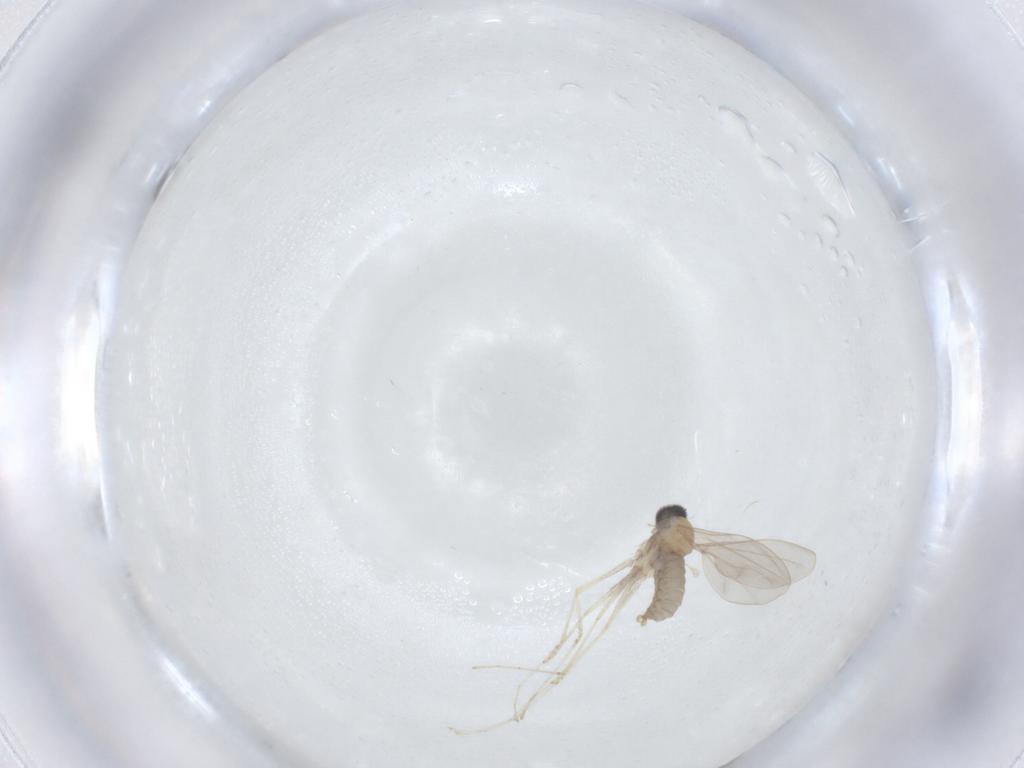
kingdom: Animalia
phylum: Arthropoda
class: Insecta
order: Diptera
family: Cecidomyiidae
